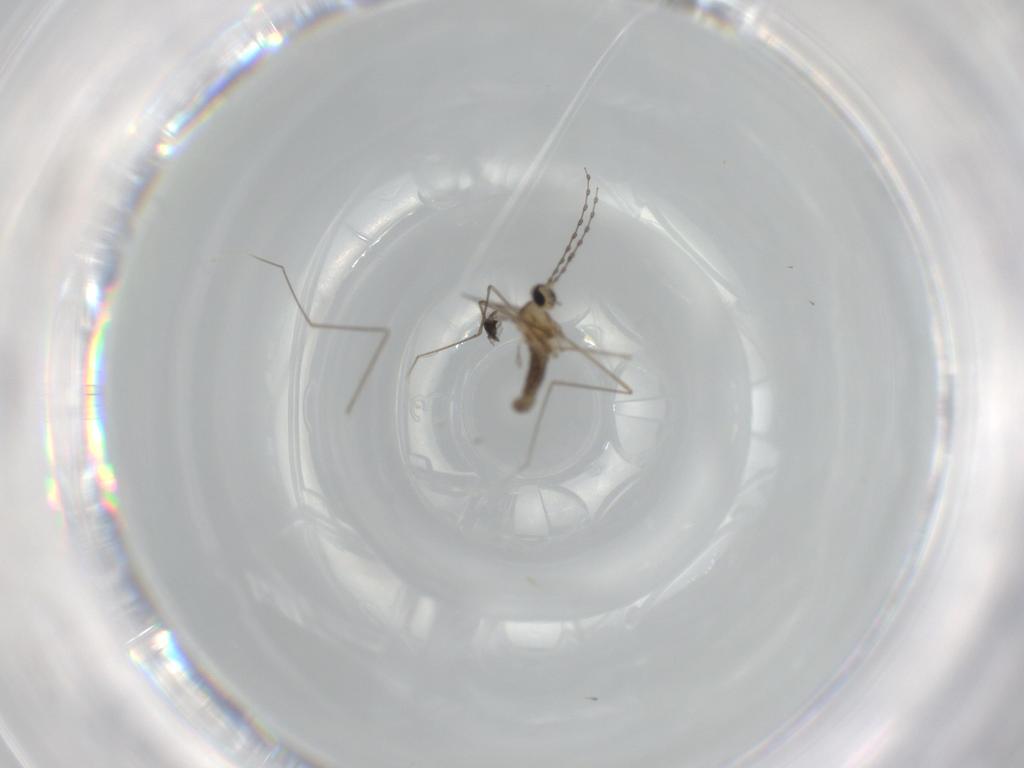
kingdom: Animalia
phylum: Arthropoda
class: Insecta
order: Diptera
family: Cecidomyiidae
